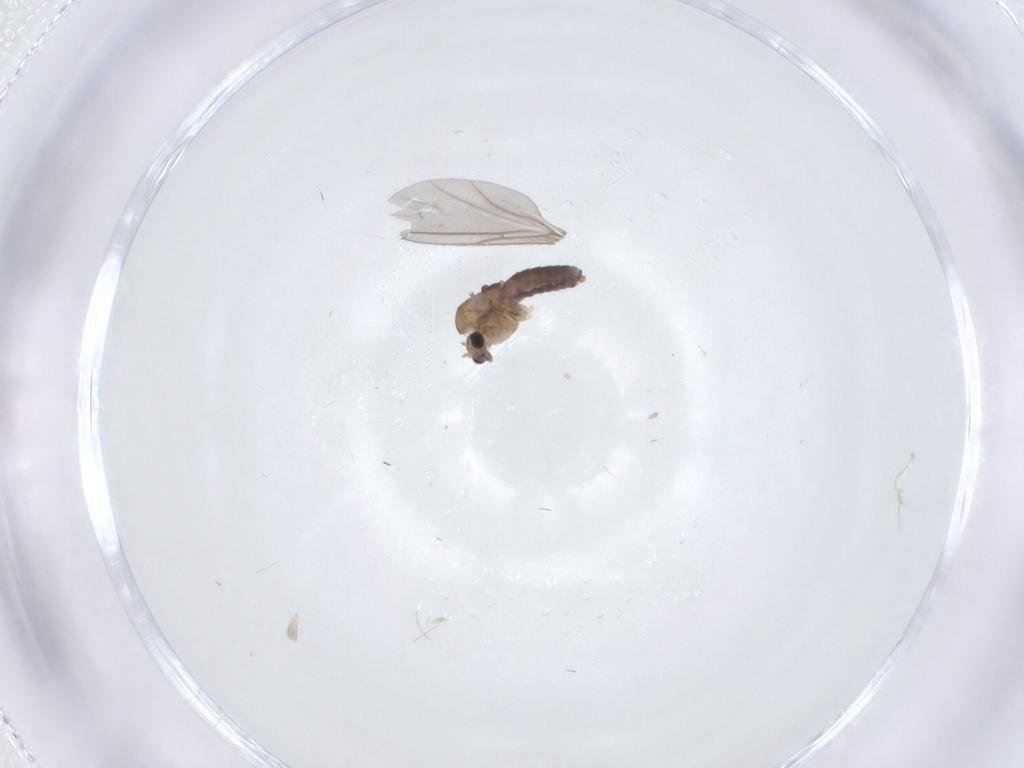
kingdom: Animalia
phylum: Arthropoda
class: Insecta
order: Diptera
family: Chironomidae
